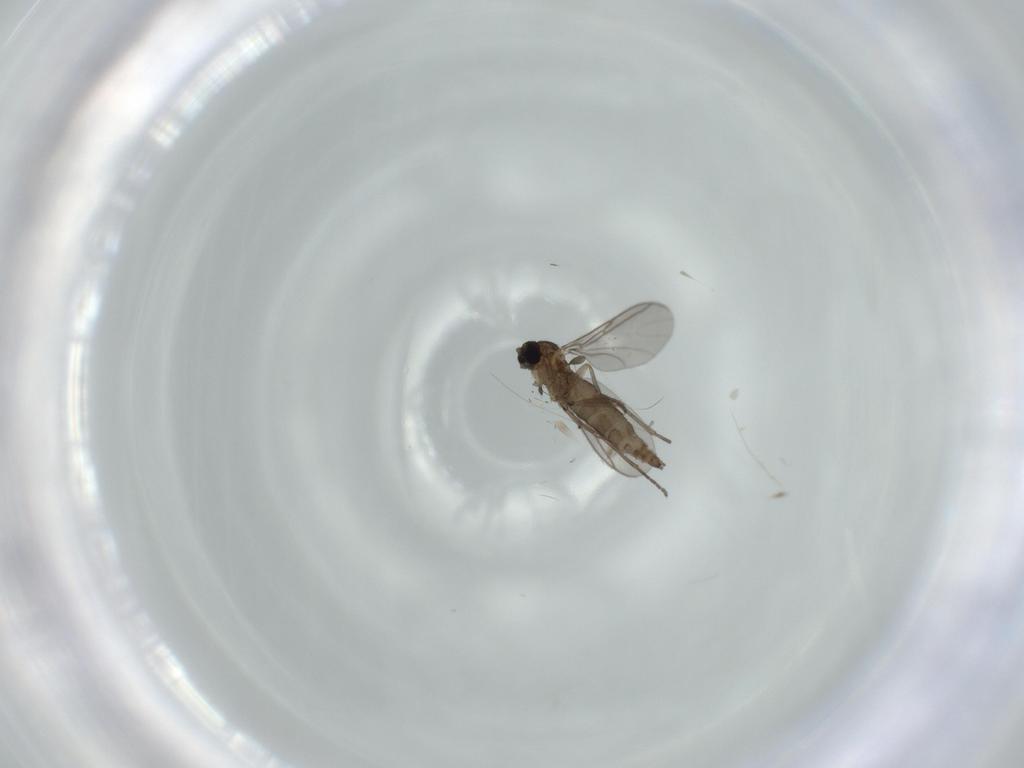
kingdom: Animalia
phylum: Arthropoda
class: Insecta
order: Diptera
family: Sciaridae
